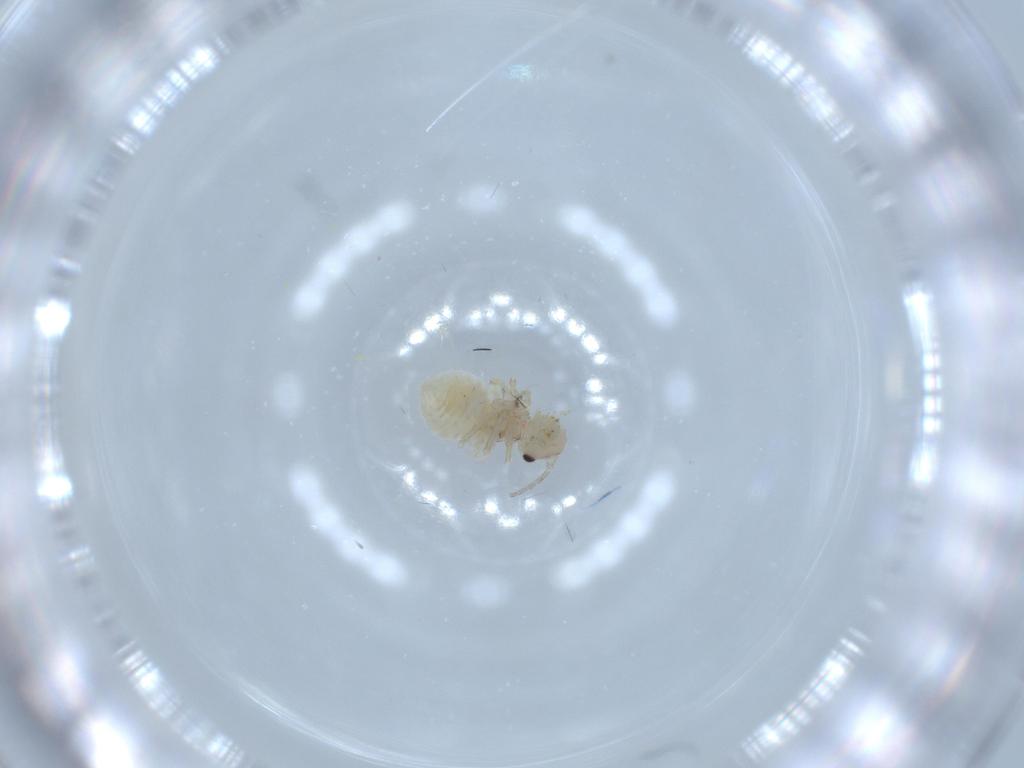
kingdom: Animalia
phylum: Arthropoda
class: Insecta
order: Psocodea
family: Amphipsocidae
